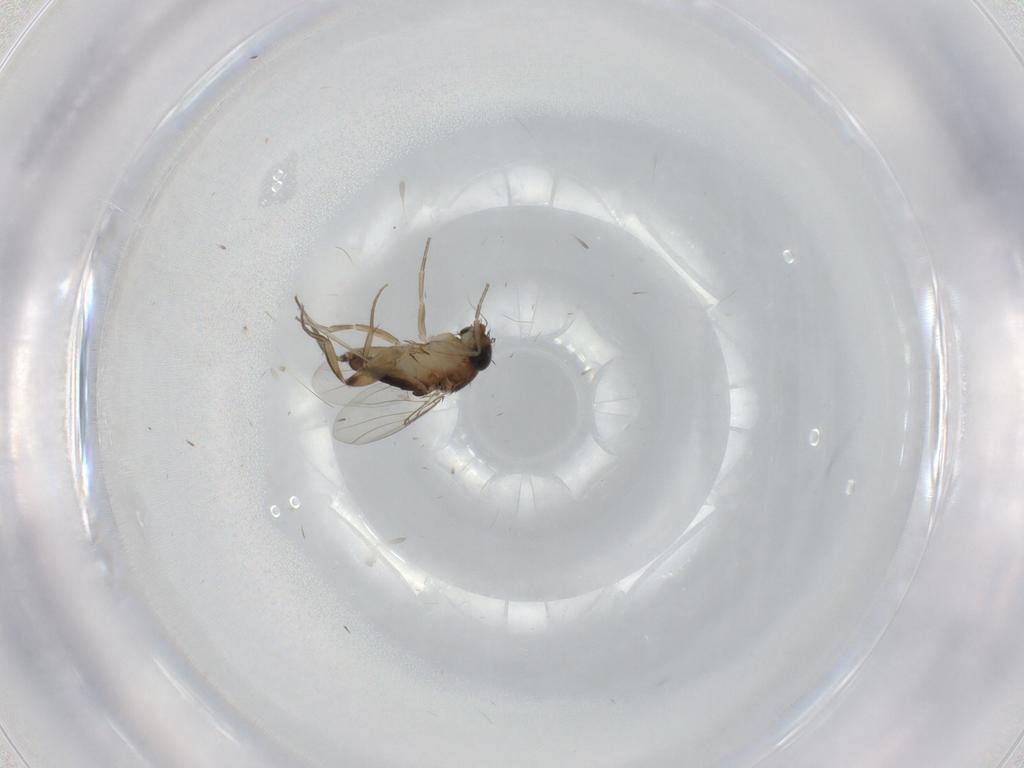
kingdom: Animalia
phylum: Arthropoda
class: Insecta
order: Diptera
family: Phoridae
